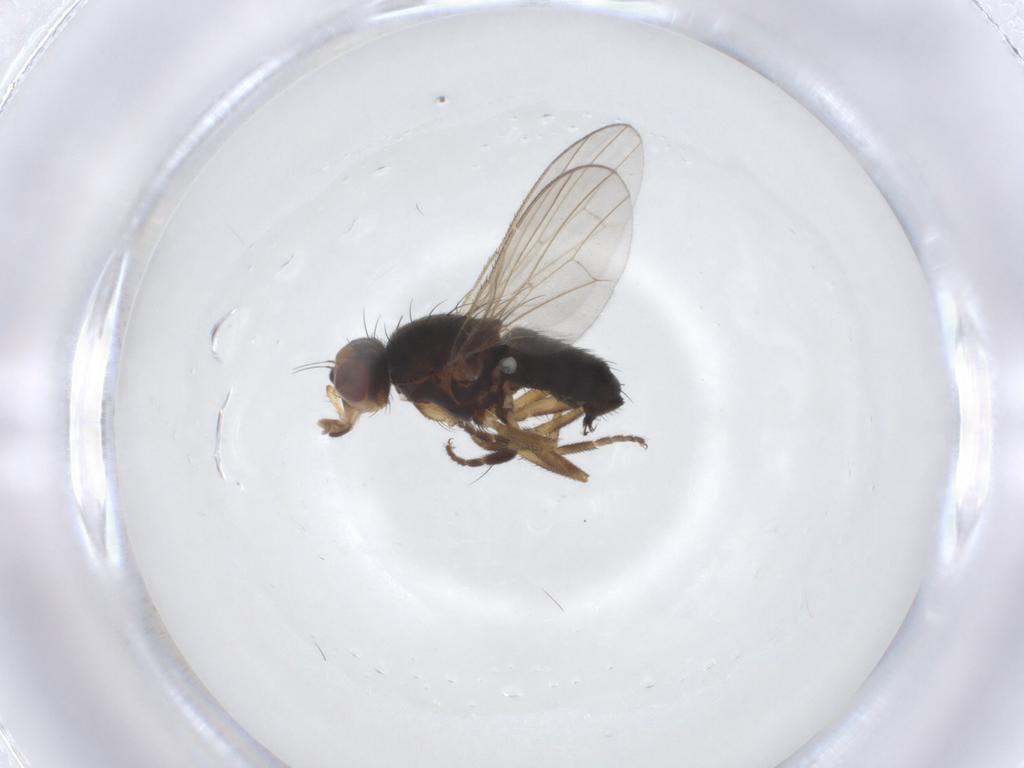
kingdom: Animalia
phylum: Arthropoda
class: Insecta
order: Diptera
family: Heleomyzidae
